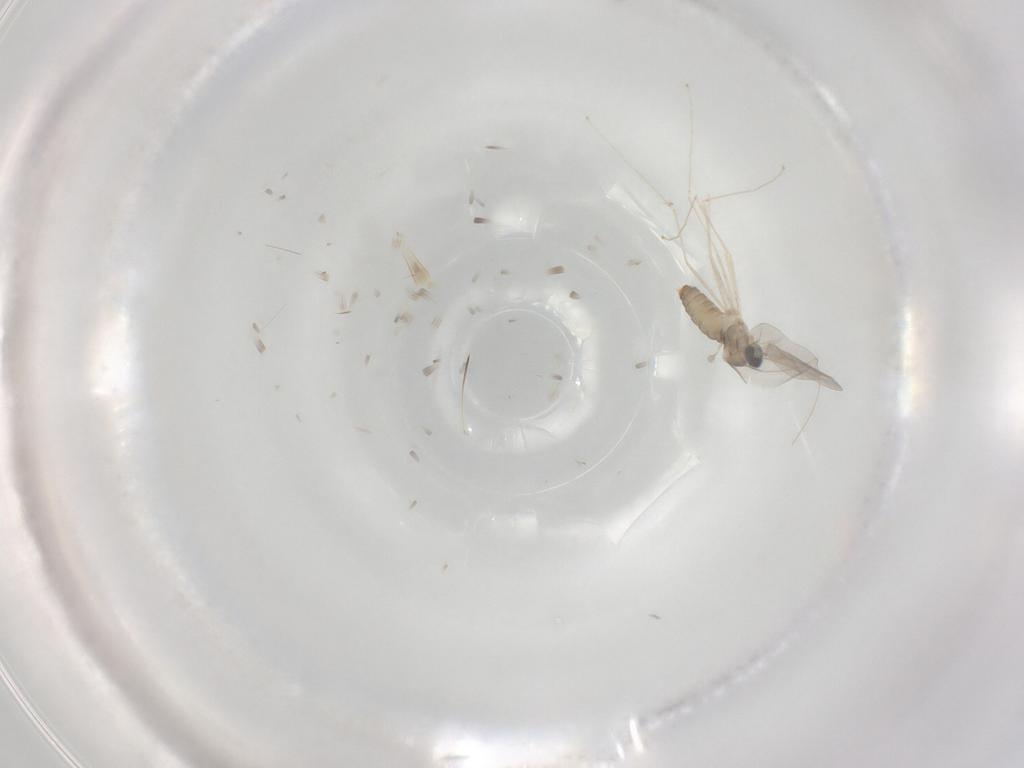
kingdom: Animalia
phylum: Arthropoda
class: Insecta
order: Diptera
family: Cecidomyiidae
